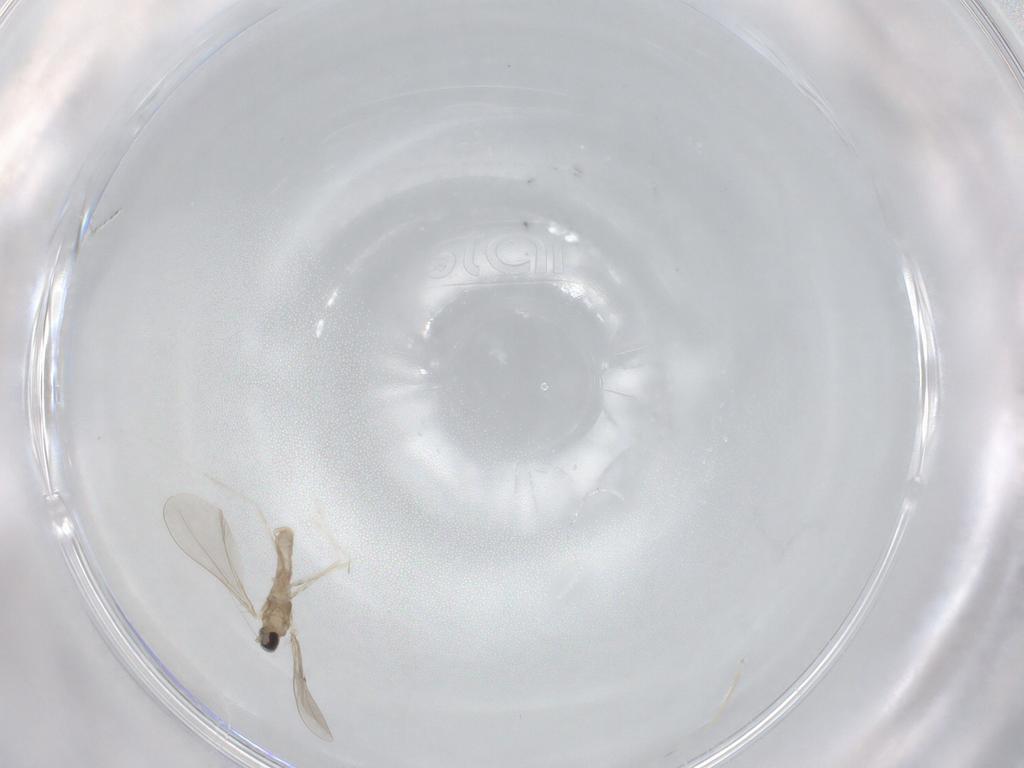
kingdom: Animalia
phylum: Arthropoda
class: Insecta
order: Diptera
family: Cecidomyiidae
